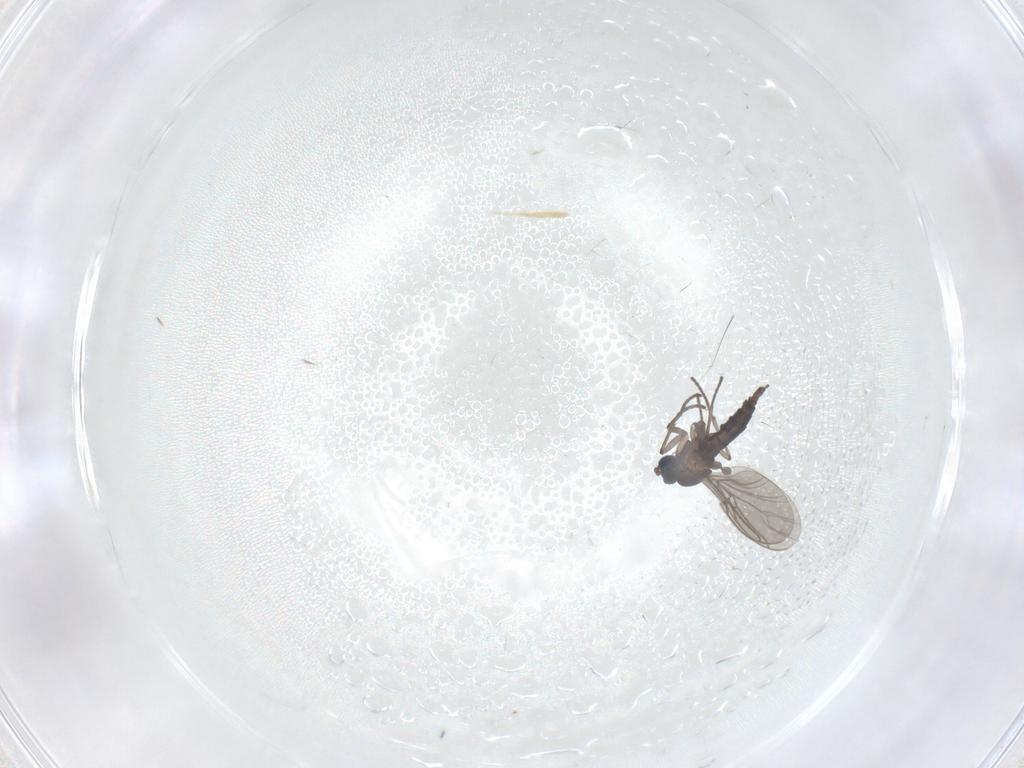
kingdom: Animalia
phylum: Arthropoda
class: Insecta
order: Diptera
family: Sciaridae
